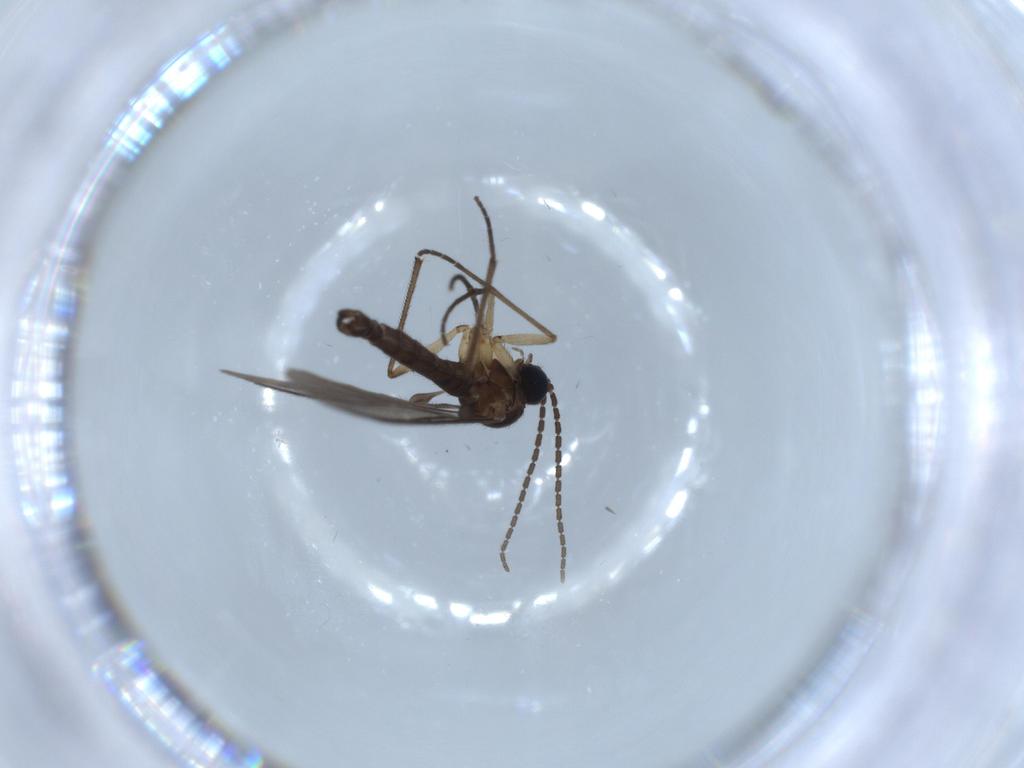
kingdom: Animalia
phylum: Arthropoda
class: Insecta
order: Diptera
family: Sciaridae
